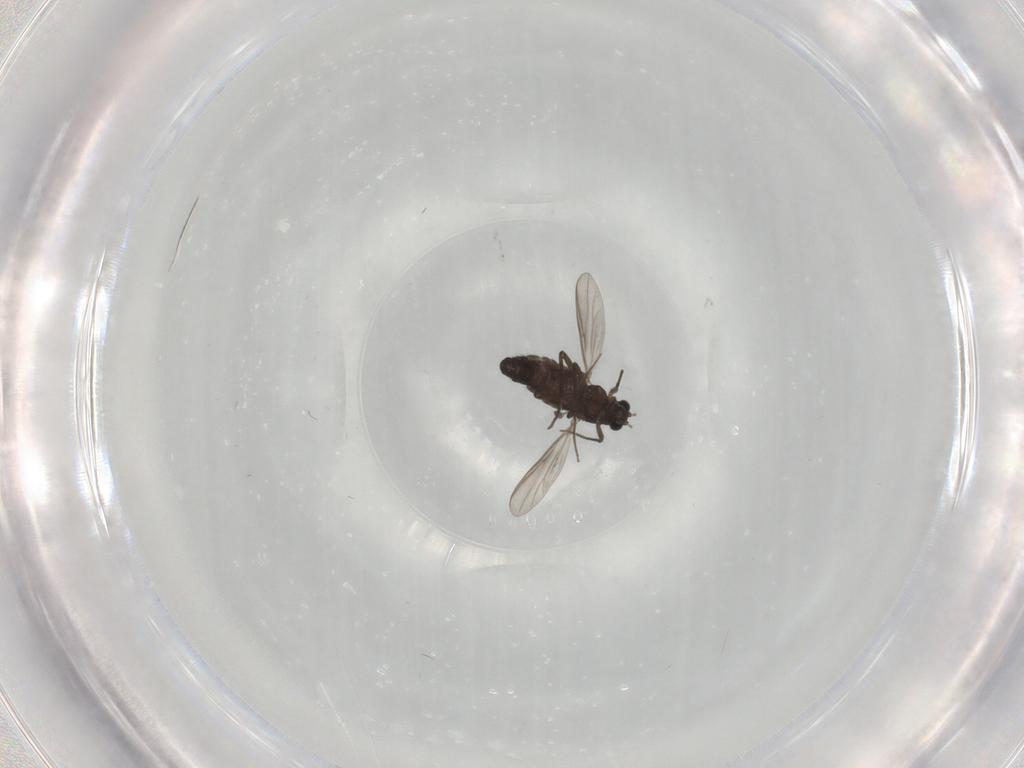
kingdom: Animalia
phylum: Arthropoda
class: Insecta
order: Diptera
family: Chironomidae
